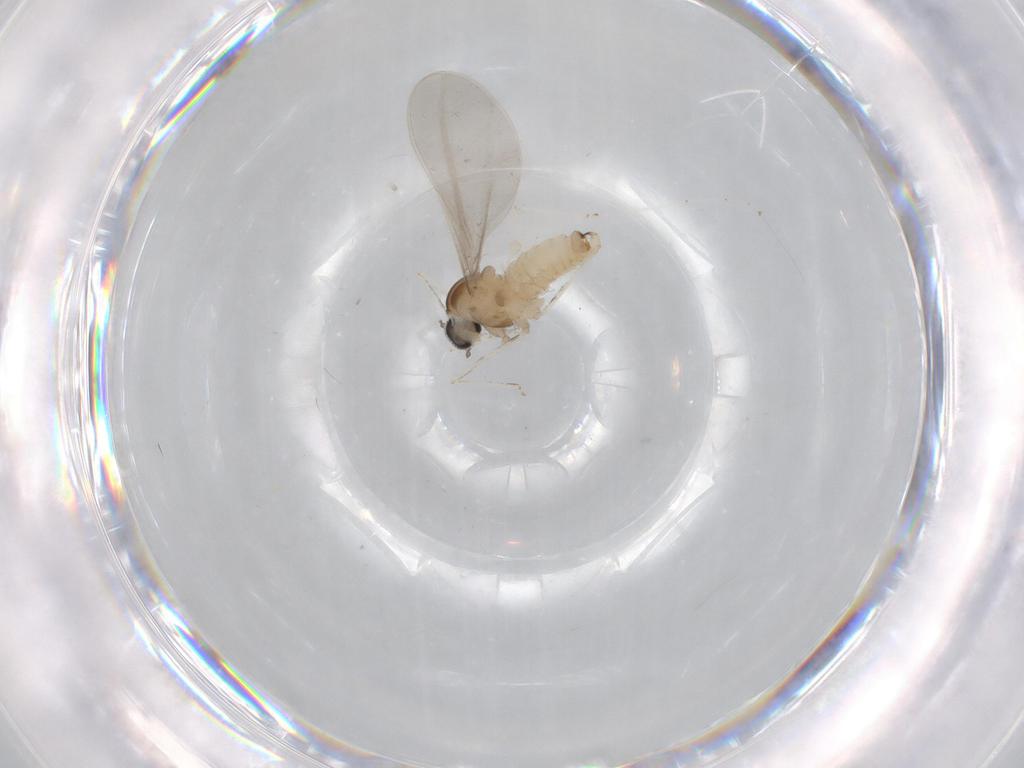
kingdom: Animalia
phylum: Arthropoda
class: Insecta
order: Diptera
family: Cecidomyiidae
